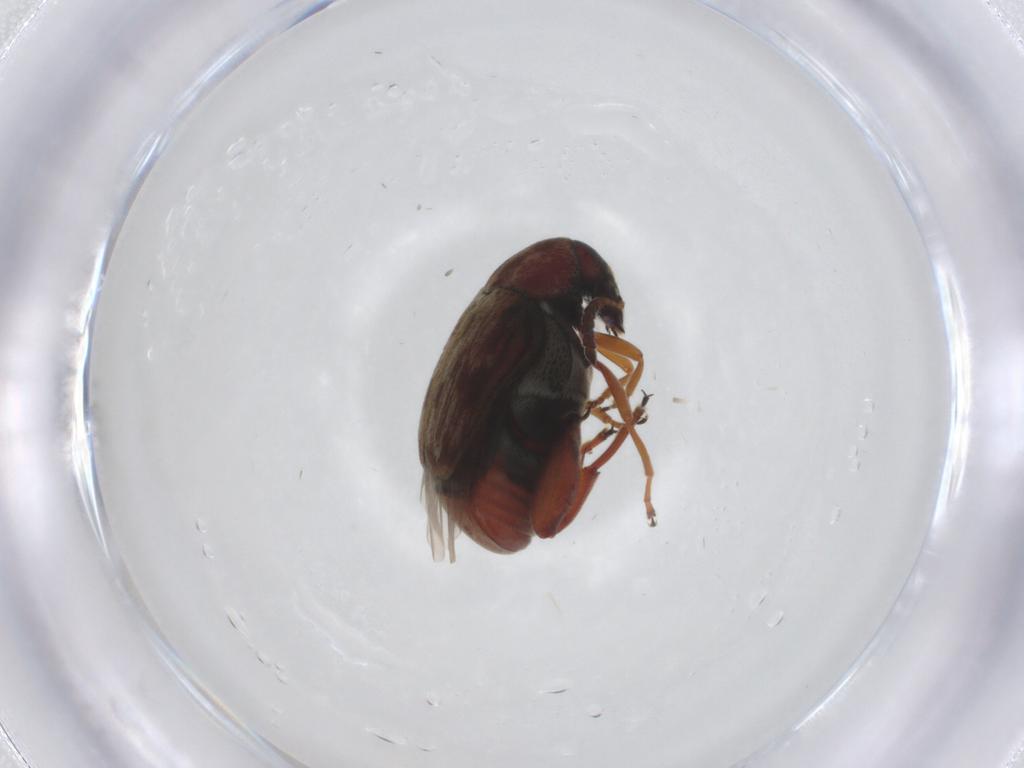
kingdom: Animalia
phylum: Arthropoda
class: Insecta
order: Coleoptera
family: Chrysomelidae
